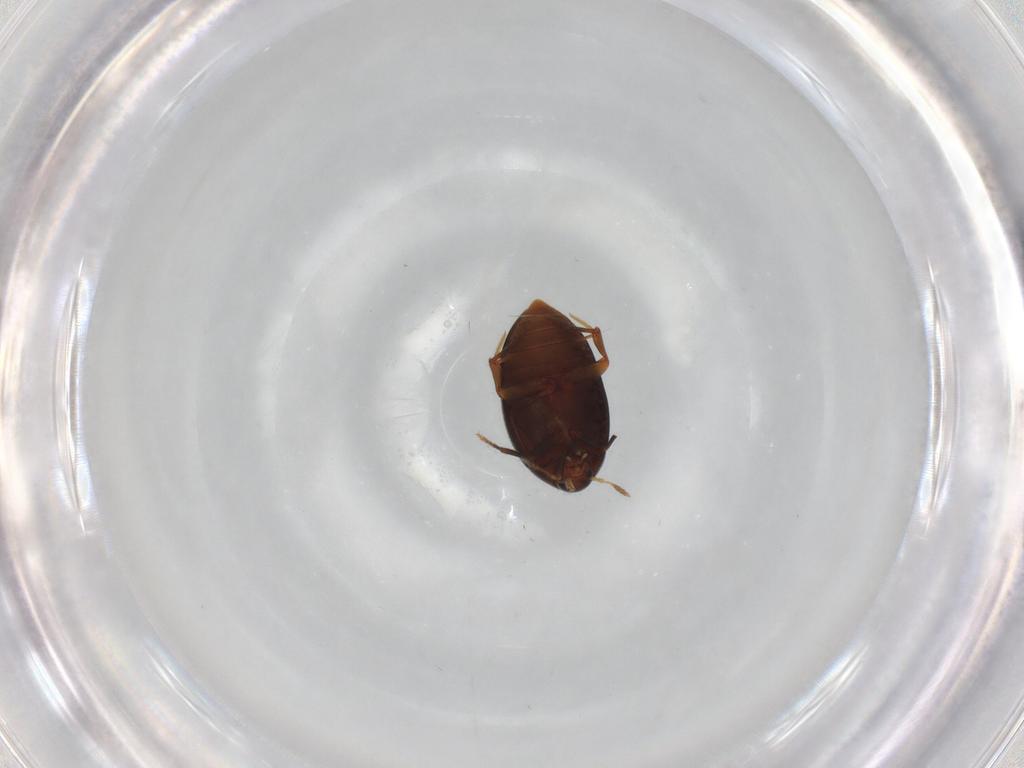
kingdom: Animalia
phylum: Arthropoda
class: Insecta
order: Coleoptera
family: Melandryidae
